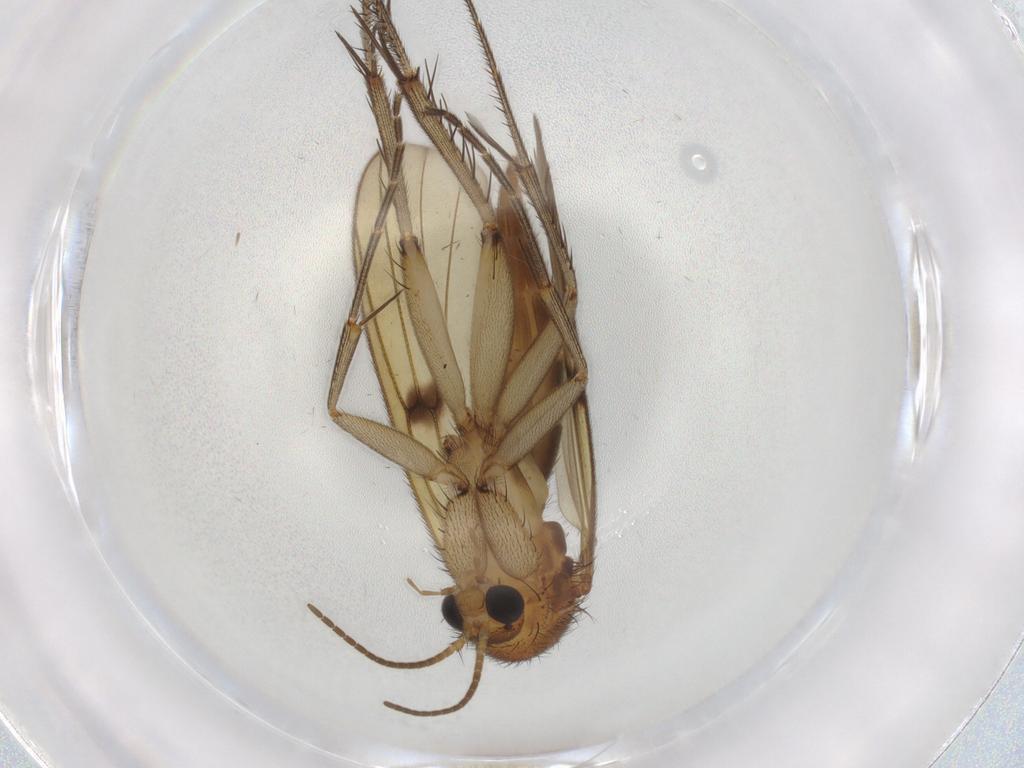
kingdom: Animalia
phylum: Arthropoda
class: Insecta
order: Diptera
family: Mycetophilidae
